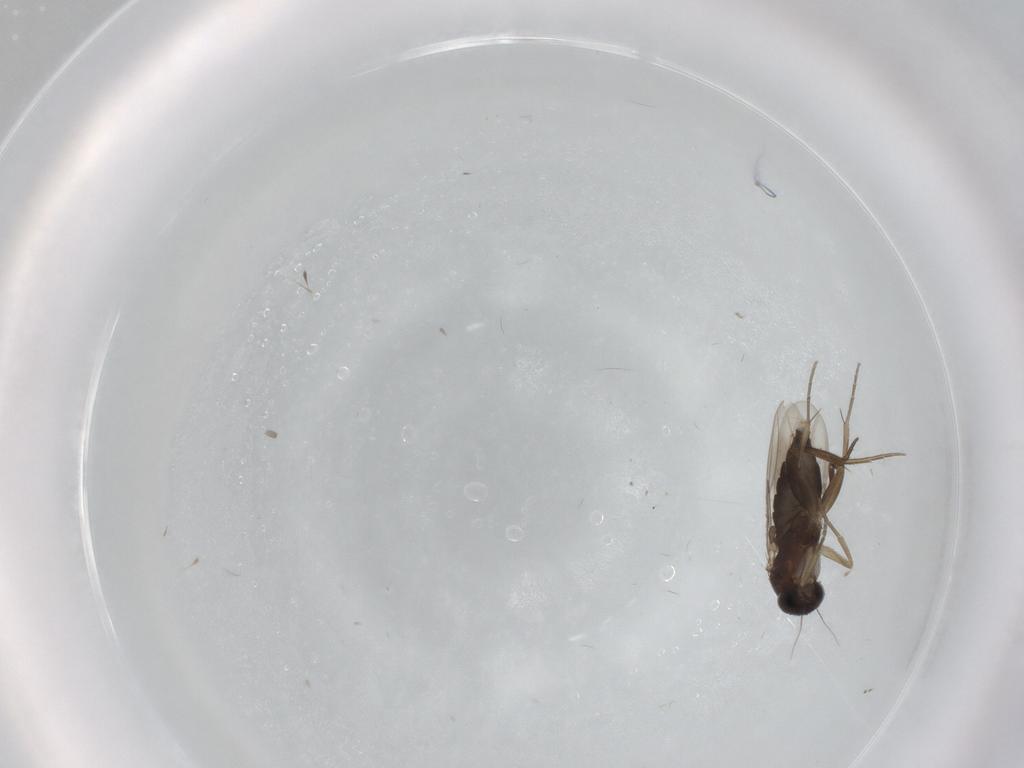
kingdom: Animalia
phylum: Arthropoda
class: Insecta
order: Diptera
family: Phoridae
